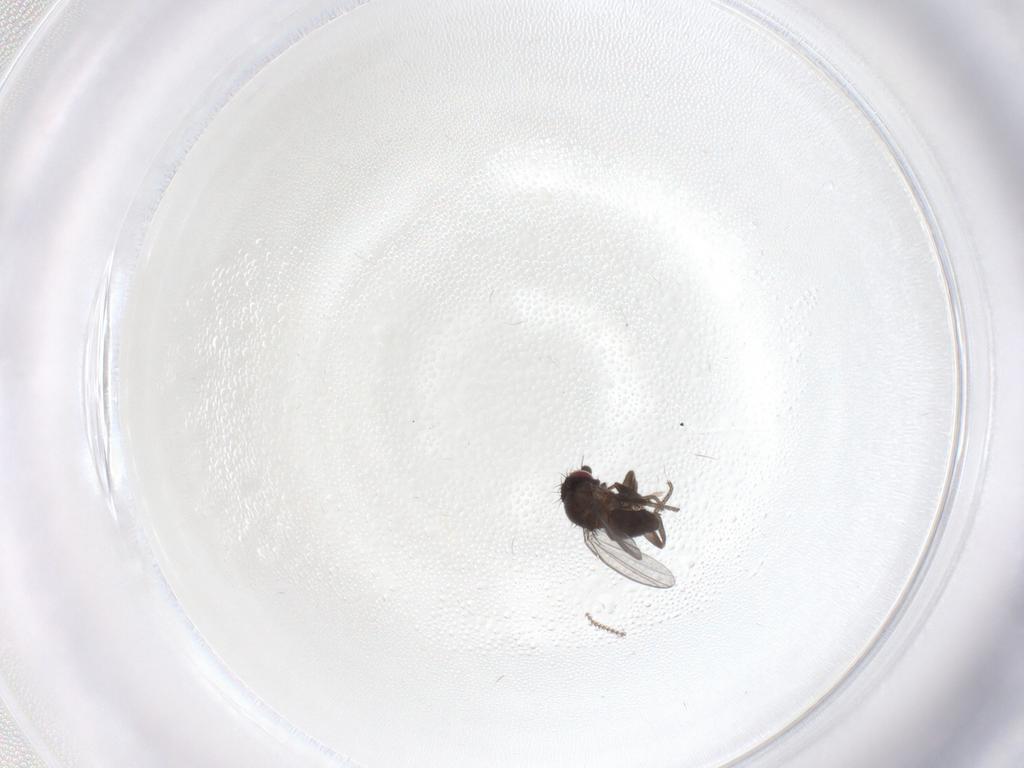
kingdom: Animalia
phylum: Arthropoda
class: Insecta
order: Diptera
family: Milichiidae
